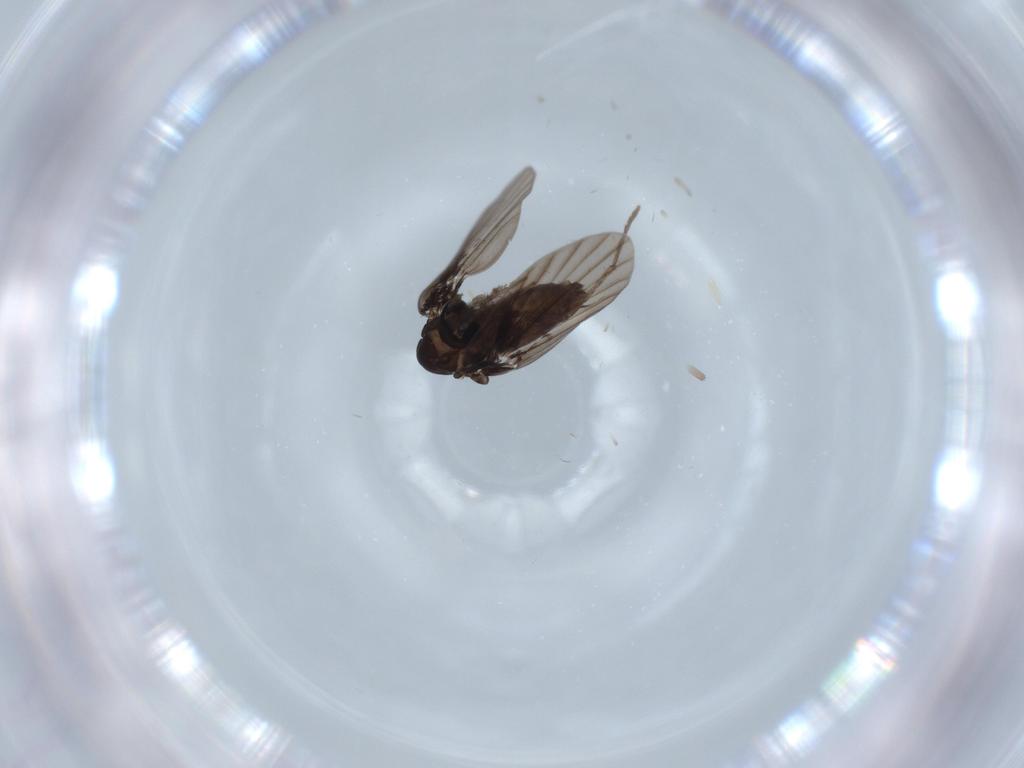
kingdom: Animalia
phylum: Arthropoda
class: Insecta
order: Diptera
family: Psychodidae
